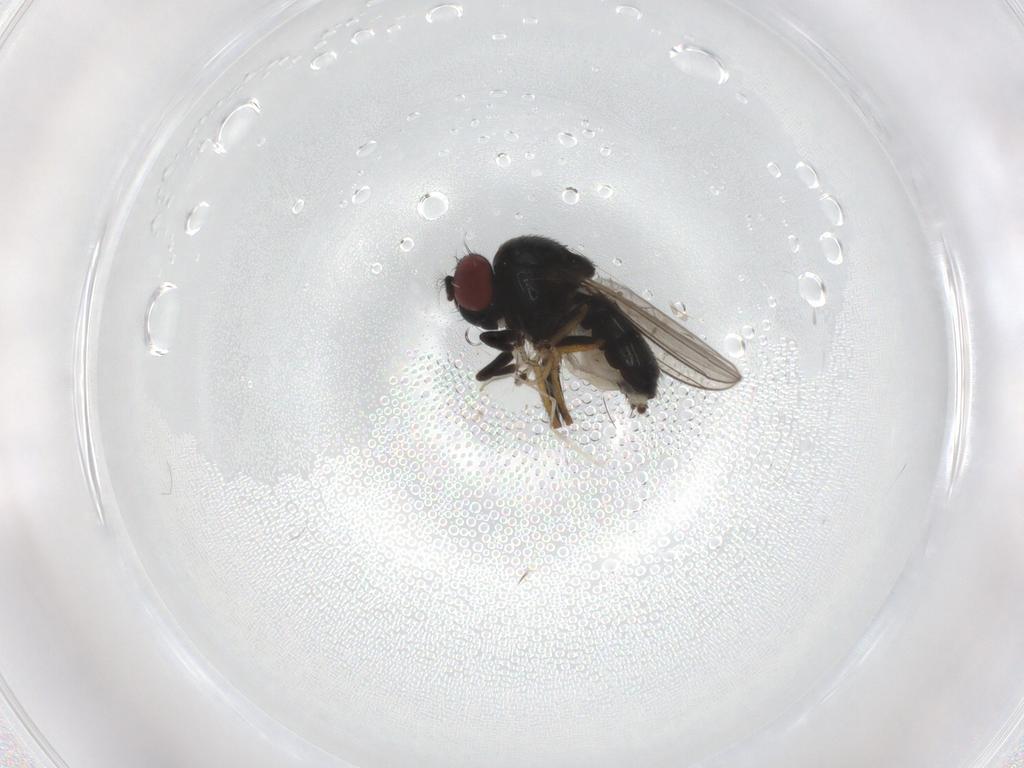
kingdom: Animalia
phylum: Arthropoda
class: Insecta
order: Diptera
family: Ephydridae
